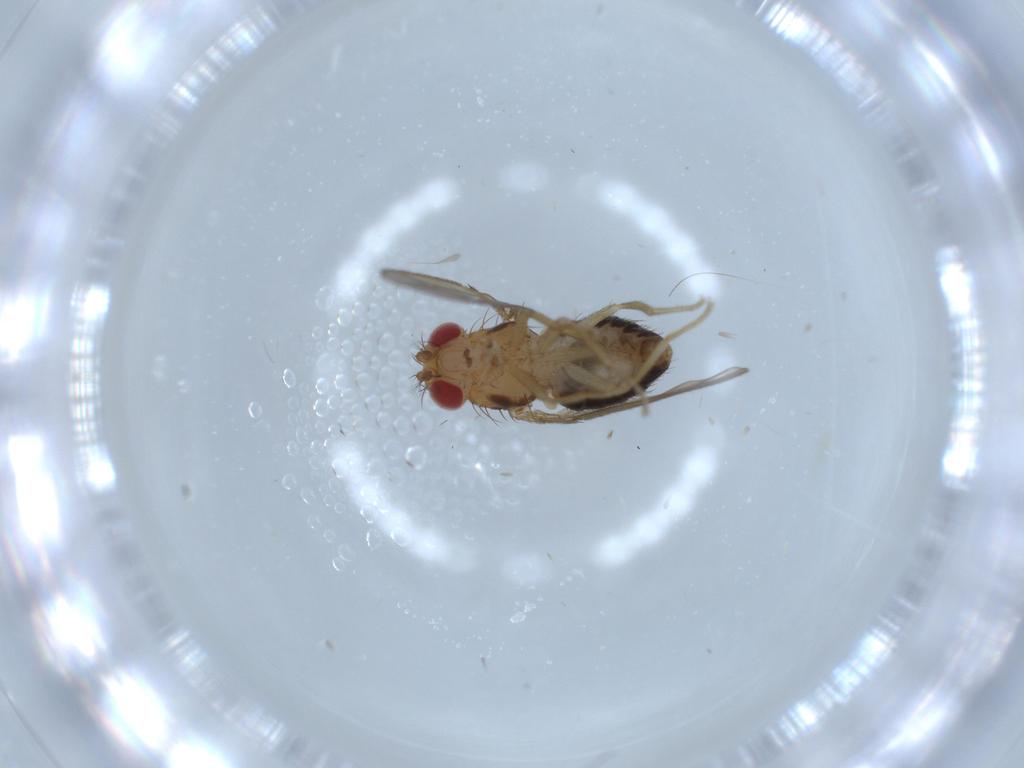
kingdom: Animalia
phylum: Arthropoda
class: Insecta
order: Diptera
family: Drosophilidae
